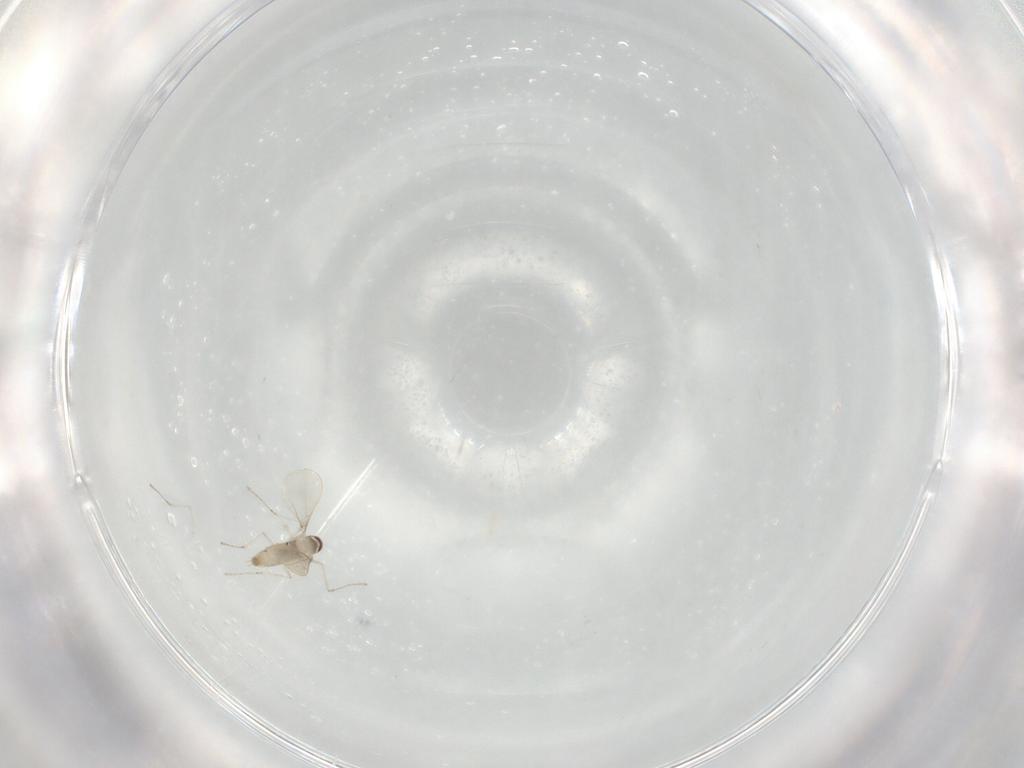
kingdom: Animalia
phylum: Arthropoda
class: Insecta
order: Diptera
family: Cecidomyiidae
